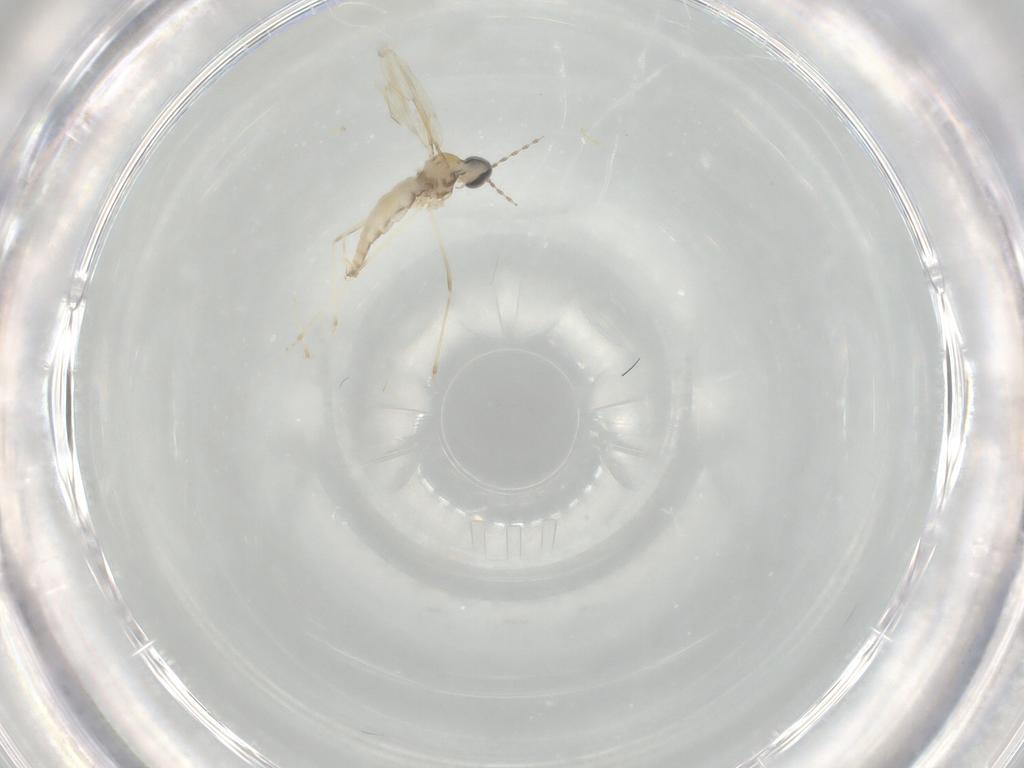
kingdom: Animalia
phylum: Arthropoda
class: Insecta
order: Diptera
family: Cecidomyiidae
